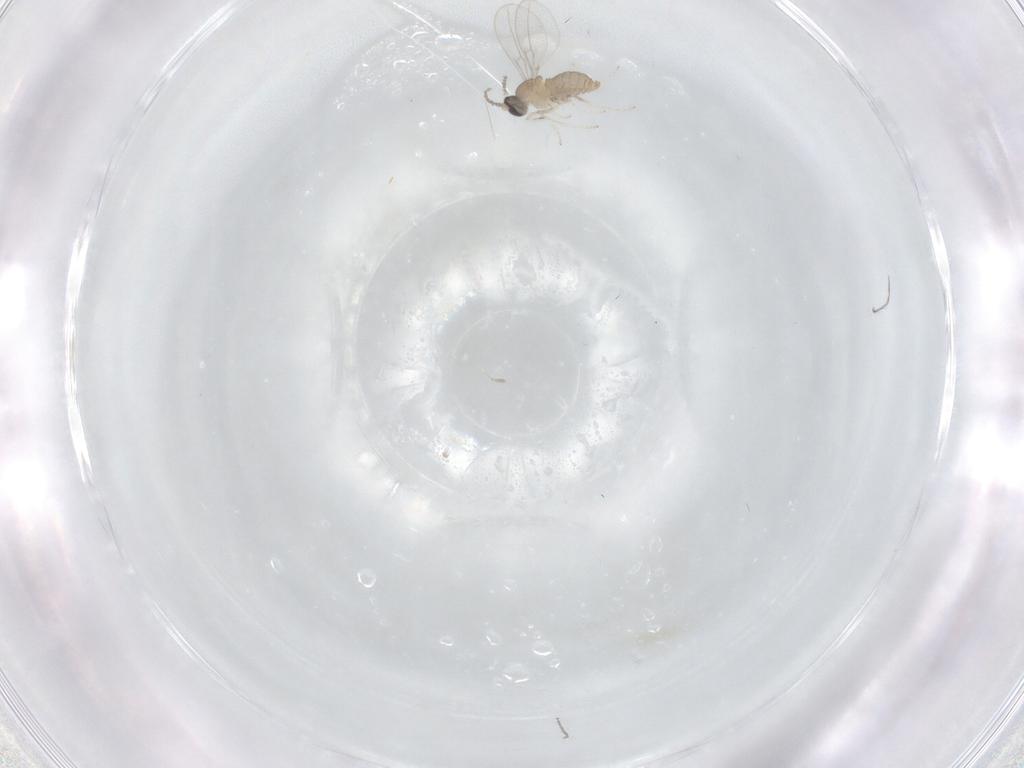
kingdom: Animalia
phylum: Arthropoda
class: Insecta
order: Diptera
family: Cecidomyiidae
